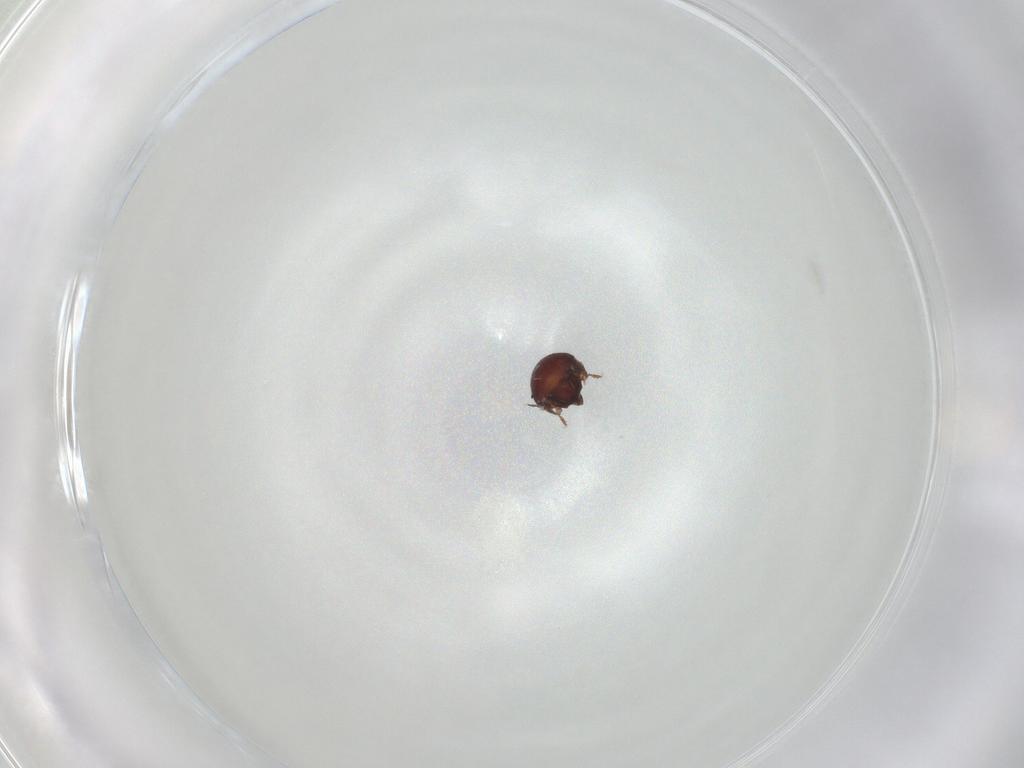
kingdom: Animalia
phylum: Arthropoda
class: Arachnida
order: Sarcoptiformes
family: Humerobatidae
